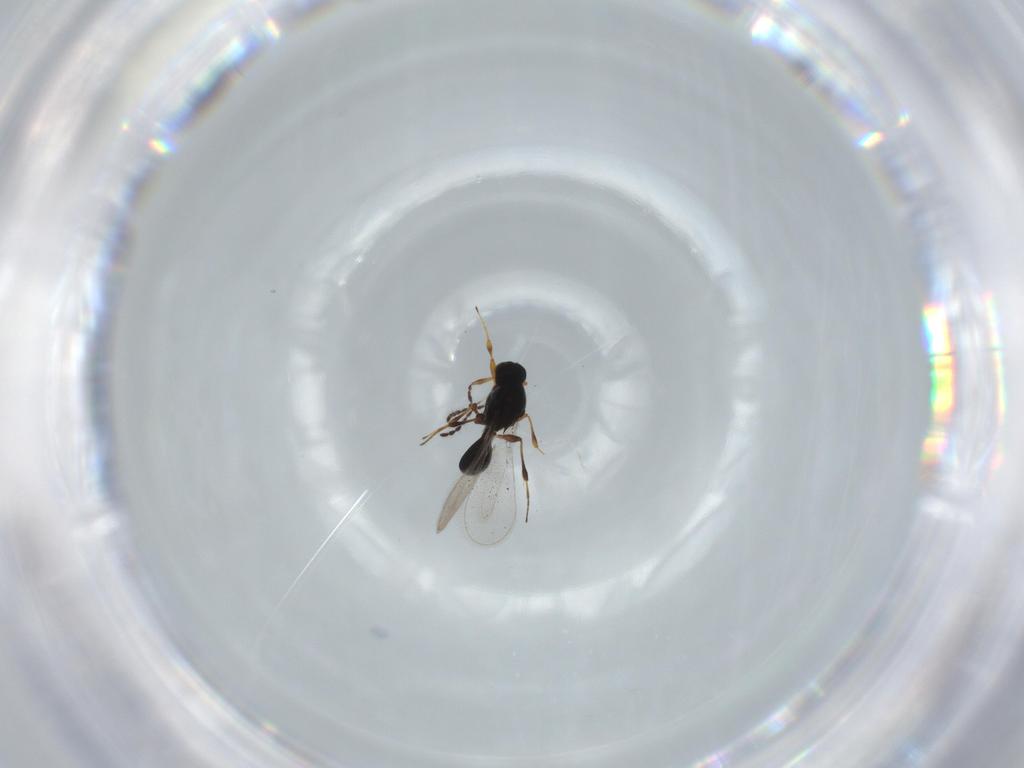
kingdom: Animalia
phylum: Arthropoda
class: Insecta
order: Hymenoptera
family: Platygastridae
